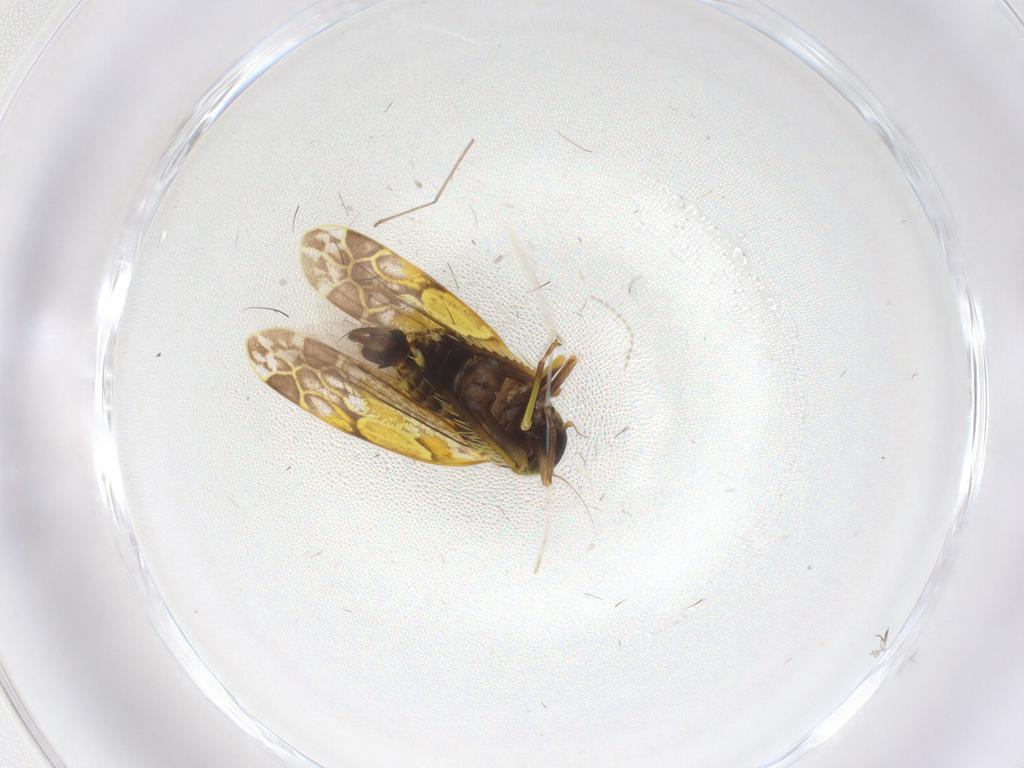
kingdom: Animalia
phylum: Arthropoda
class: Insecta
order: Hemiptera
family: Cicadellidae
